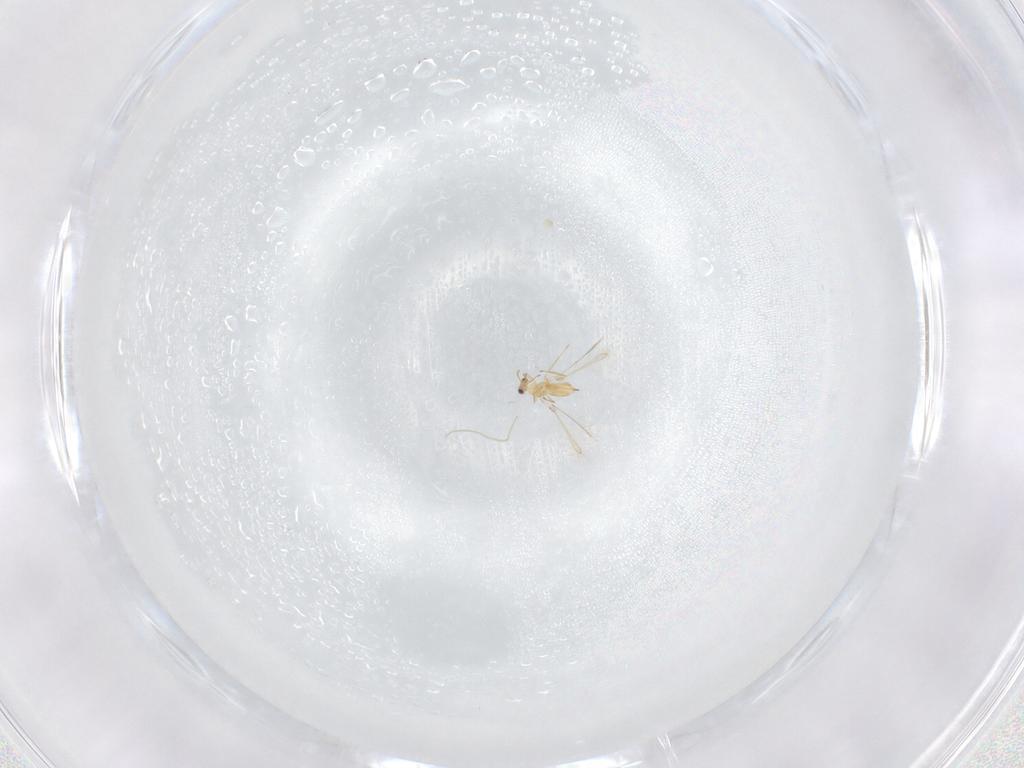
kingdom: Animalia
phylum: Arthropoda
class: Insecta
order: Hymenoptera
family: Mymaridae
